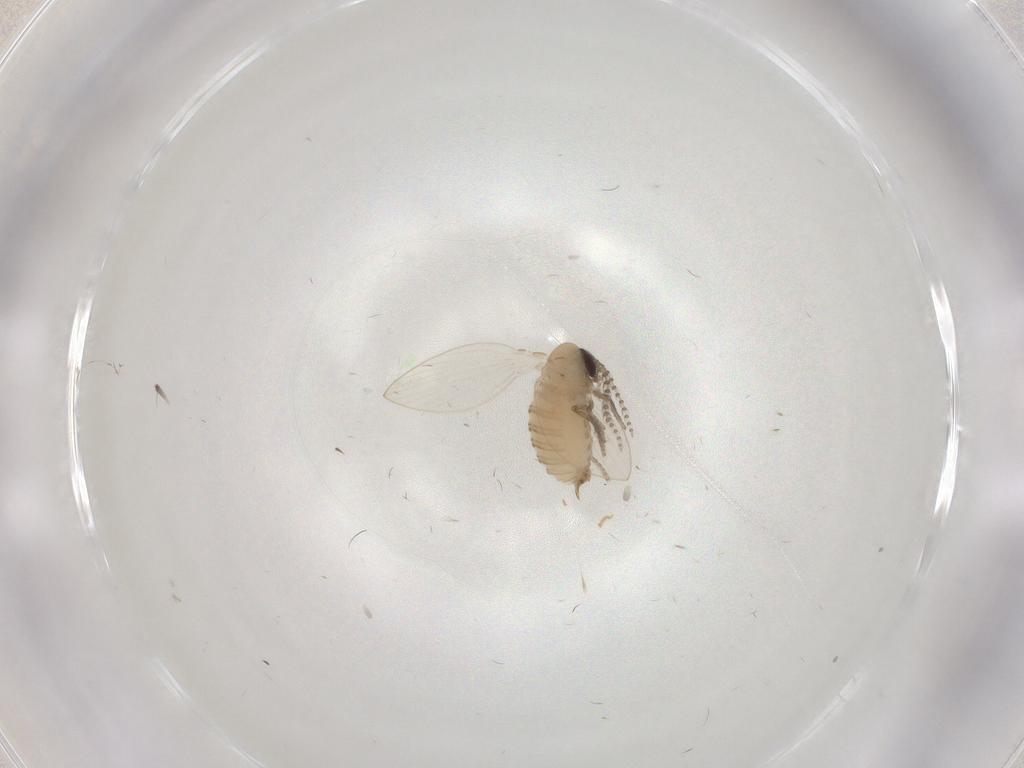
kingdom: Animalia
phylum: Arthropoda
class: Insecta
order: Diptera
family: Psychodidae
